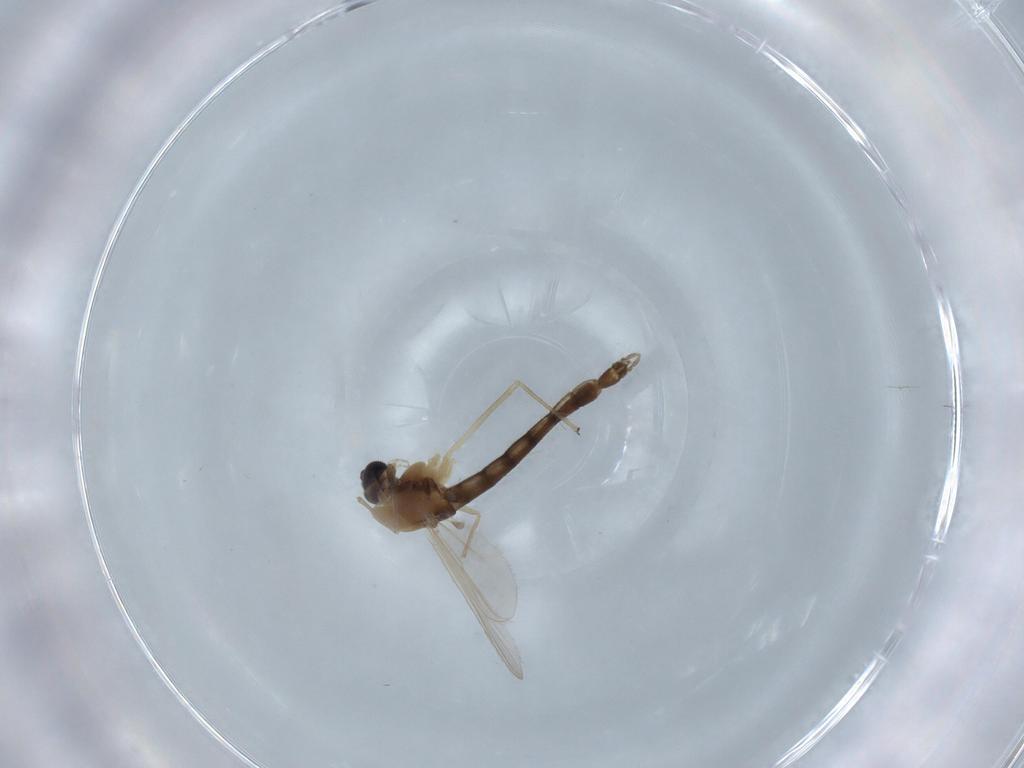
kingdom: Animalia
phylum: Arthropoda
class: Insecta
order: Diptera
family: Chironomidae
